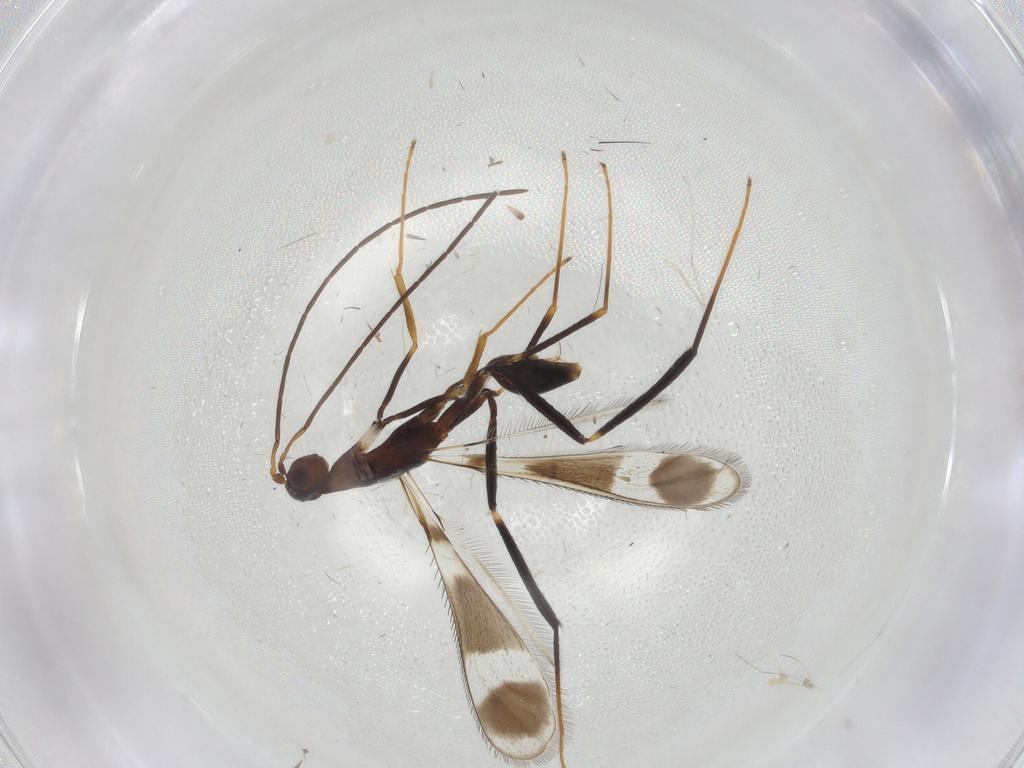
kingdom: Animalia
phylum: Arthropoda
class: Insecta
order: Hymenoptera
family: Mymaridae
